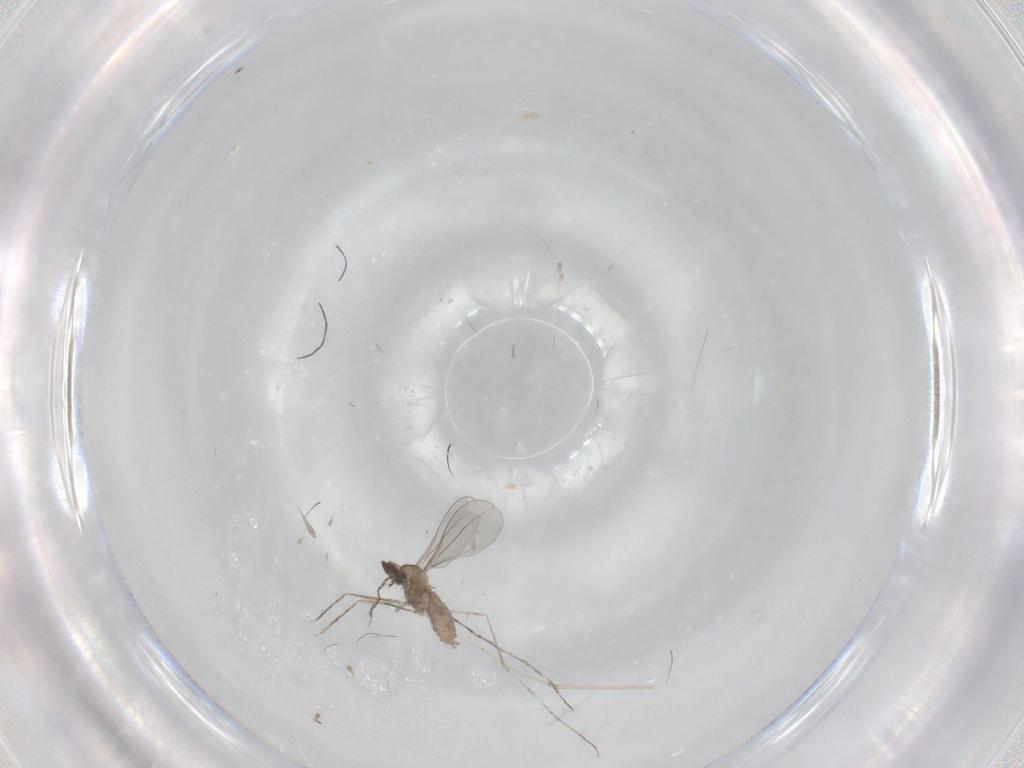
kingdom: Animalia
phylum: Arthropoda
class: Insecta
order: Diptera
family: Cecidomyiidae
